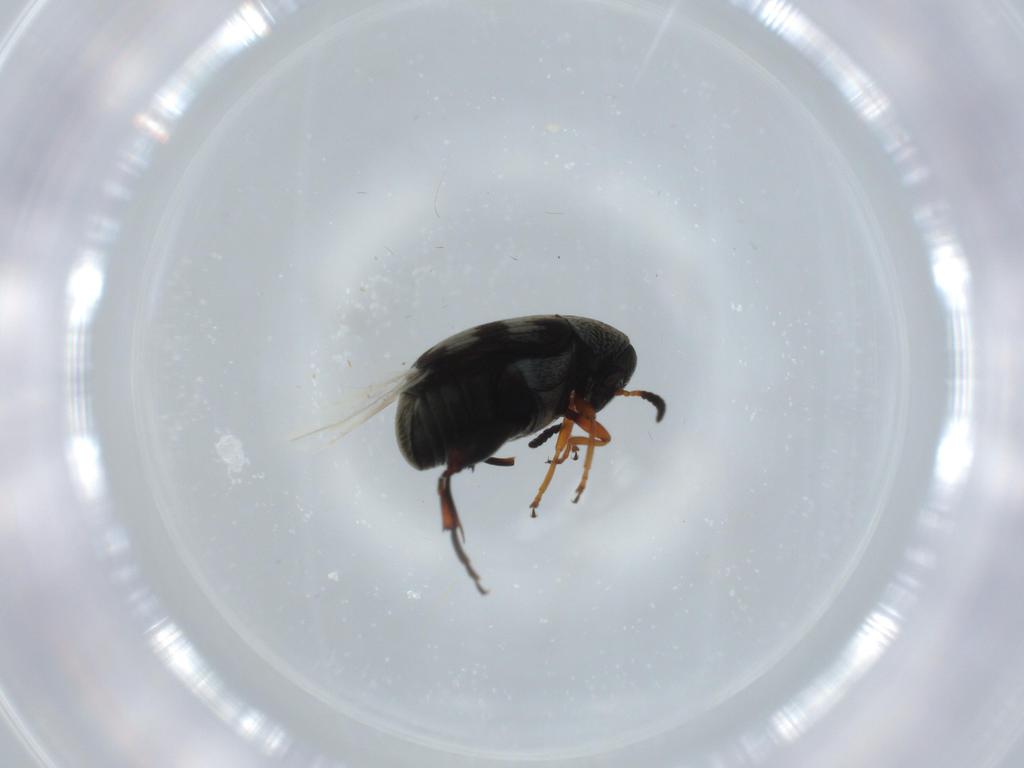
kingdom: Animalia
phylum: Arthropoda
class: Insecta
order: Coleoptera
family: Chrysomelidae
